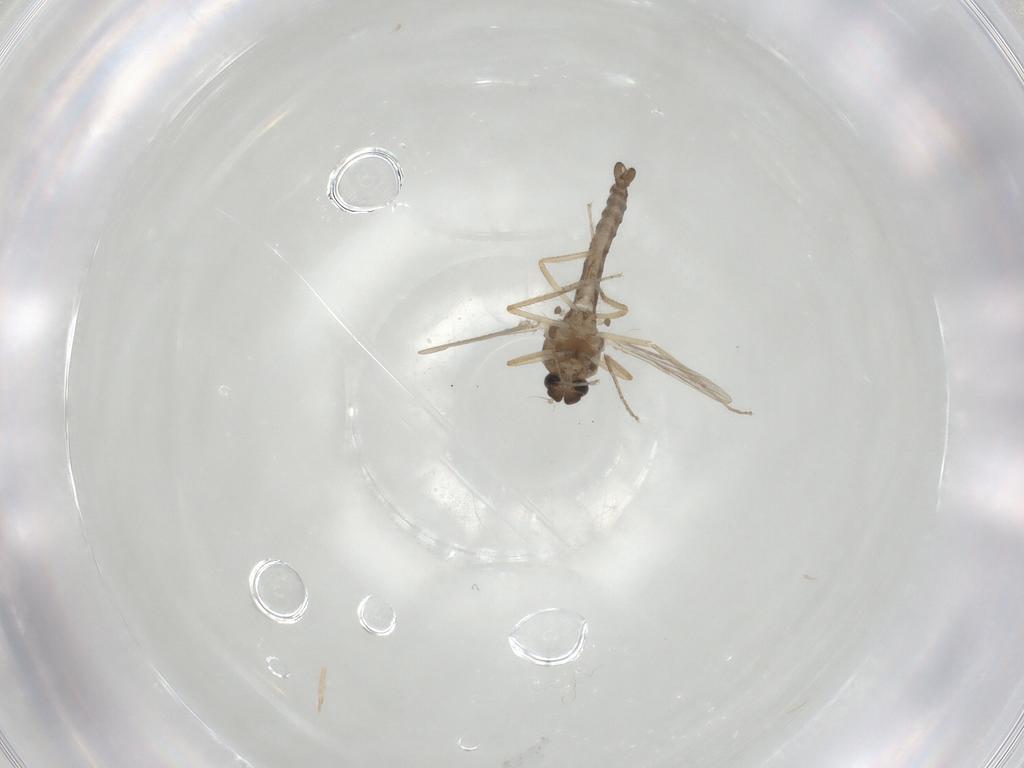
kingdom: Animalia
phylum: Arthropoda
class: Insecta
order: Diptera
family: Ceratopogonidae
